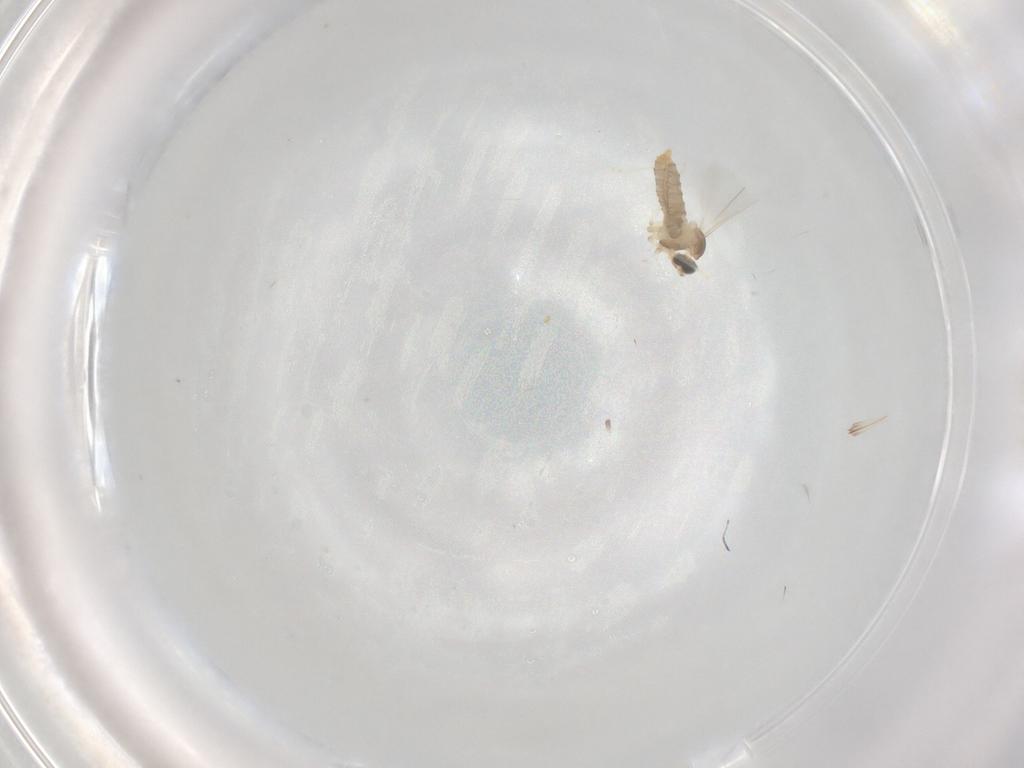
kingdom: Animalia
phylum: Arthropoda
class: Insecta
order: Diptera
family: Cecidomyiidae
